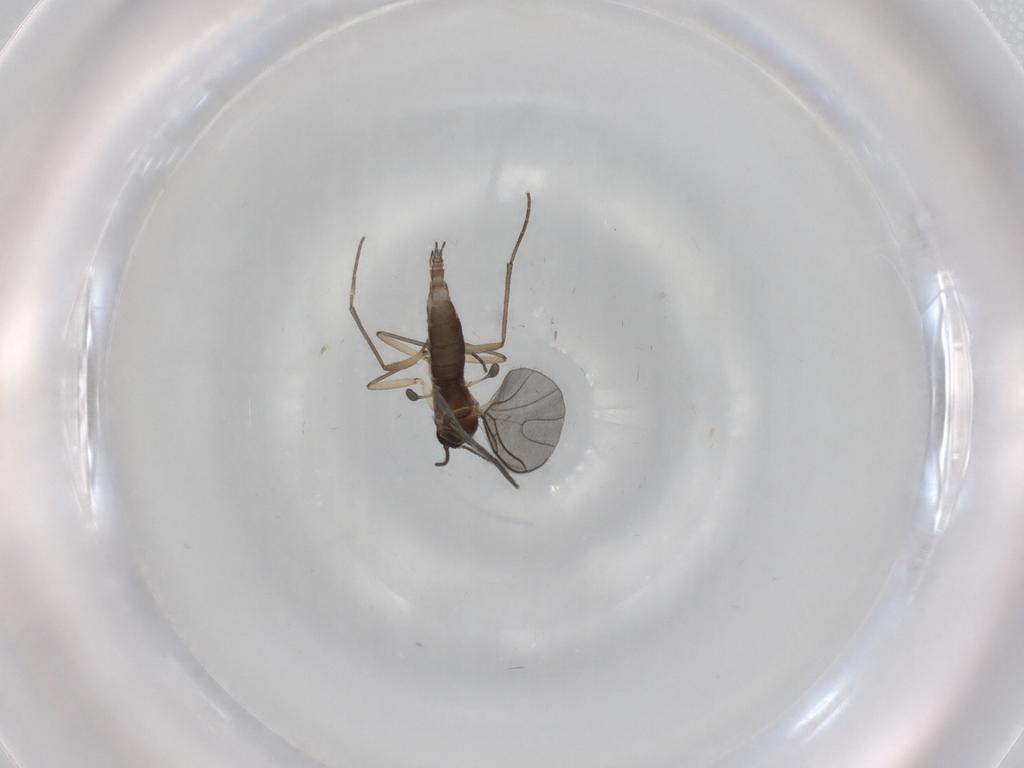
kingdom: Animalia
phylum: Arthropoda
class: Insecta
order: Diptera
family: Sciaridae
